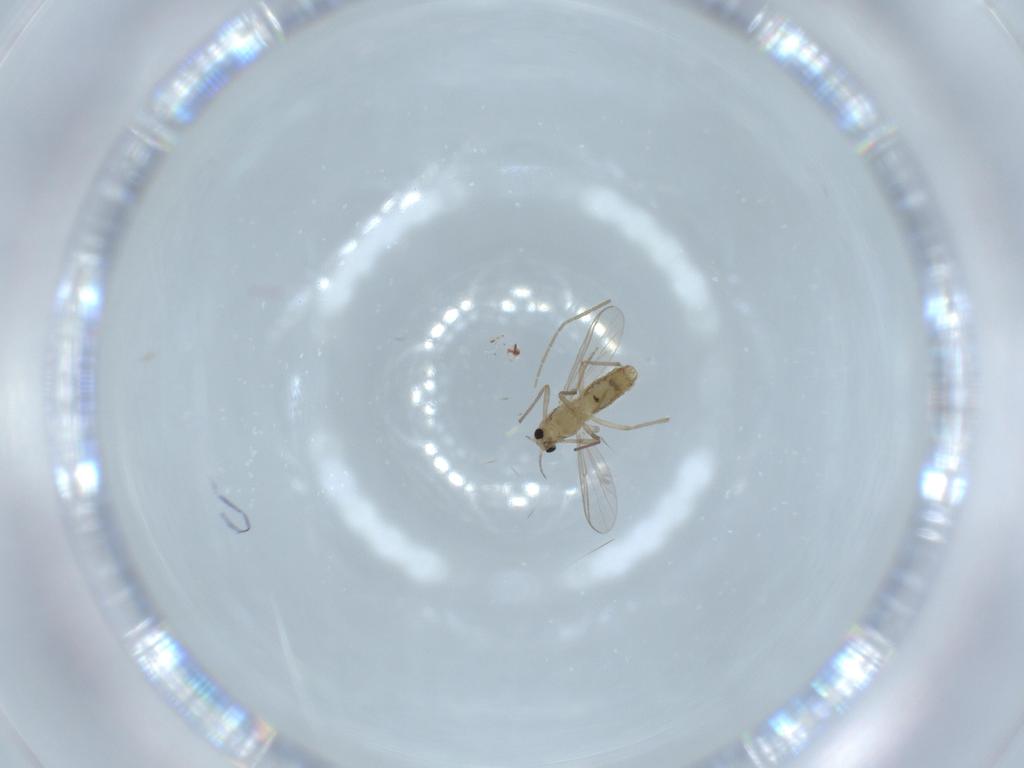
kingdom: Animalia
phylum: Arthropoda
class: Insecta
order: Diptera
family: Chironomidae
